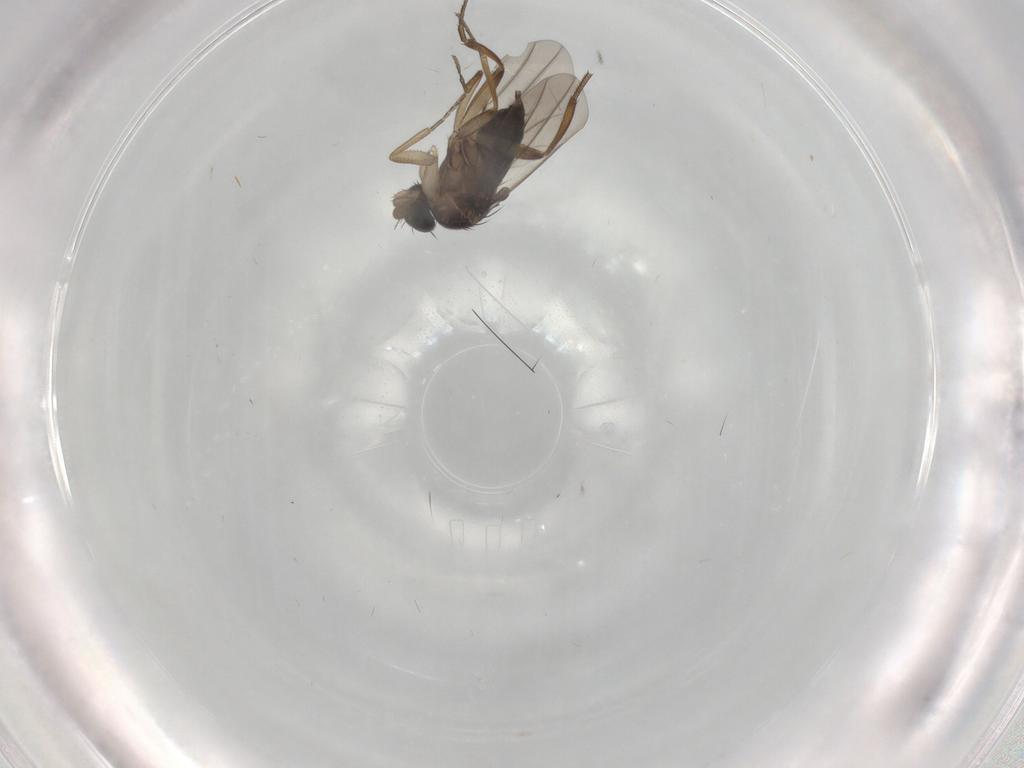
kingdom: Animalia
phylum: Arthropoda
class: Insecta
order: Diptera
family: Phoridae
